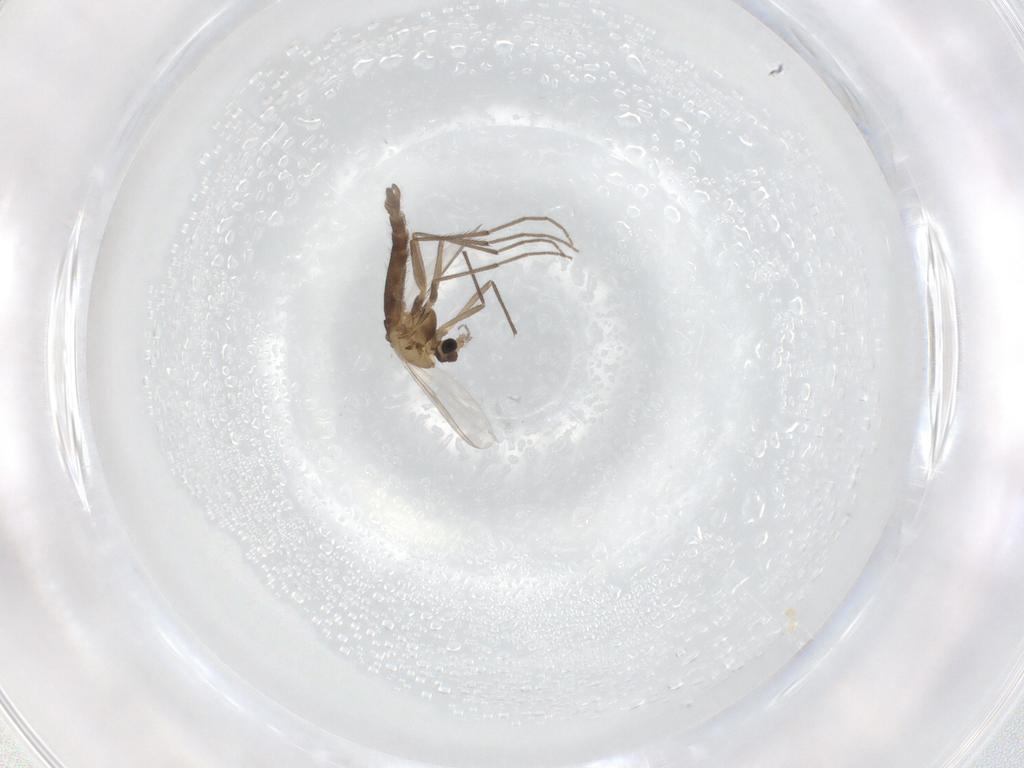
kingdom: Animalia
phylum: Arthropoda
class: Insecta
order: Diptera
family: Chironomidae
